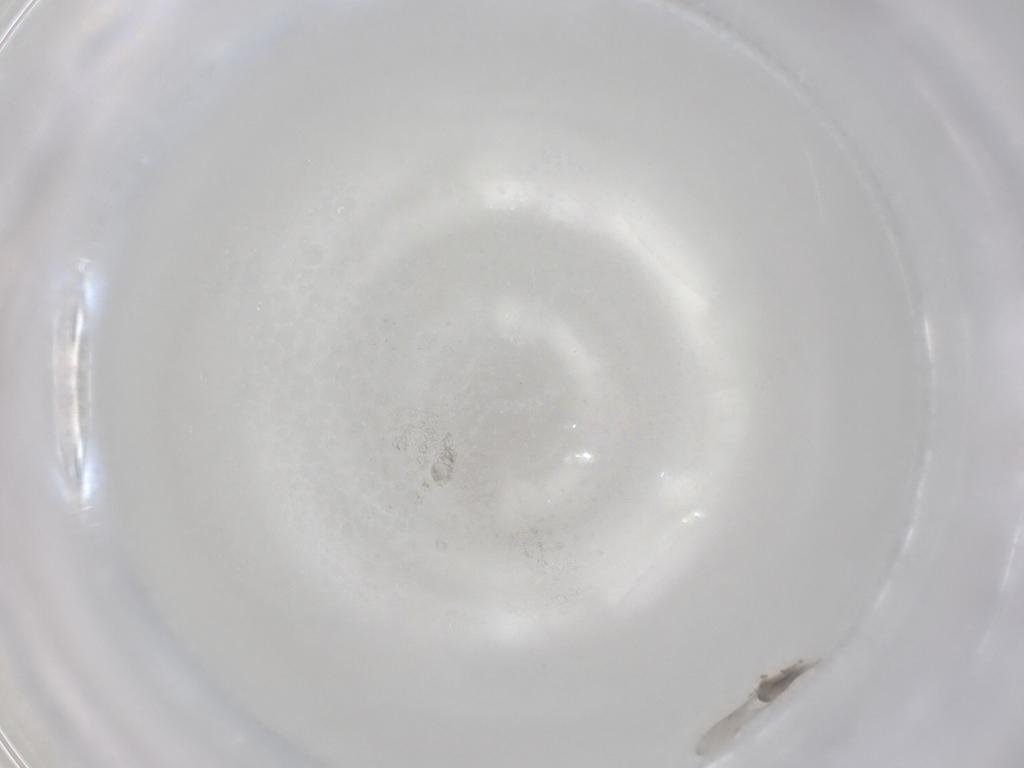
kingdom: Animalia
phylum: Arthropoda
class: Insecta
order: Diptera
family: Cecidomyiidae
